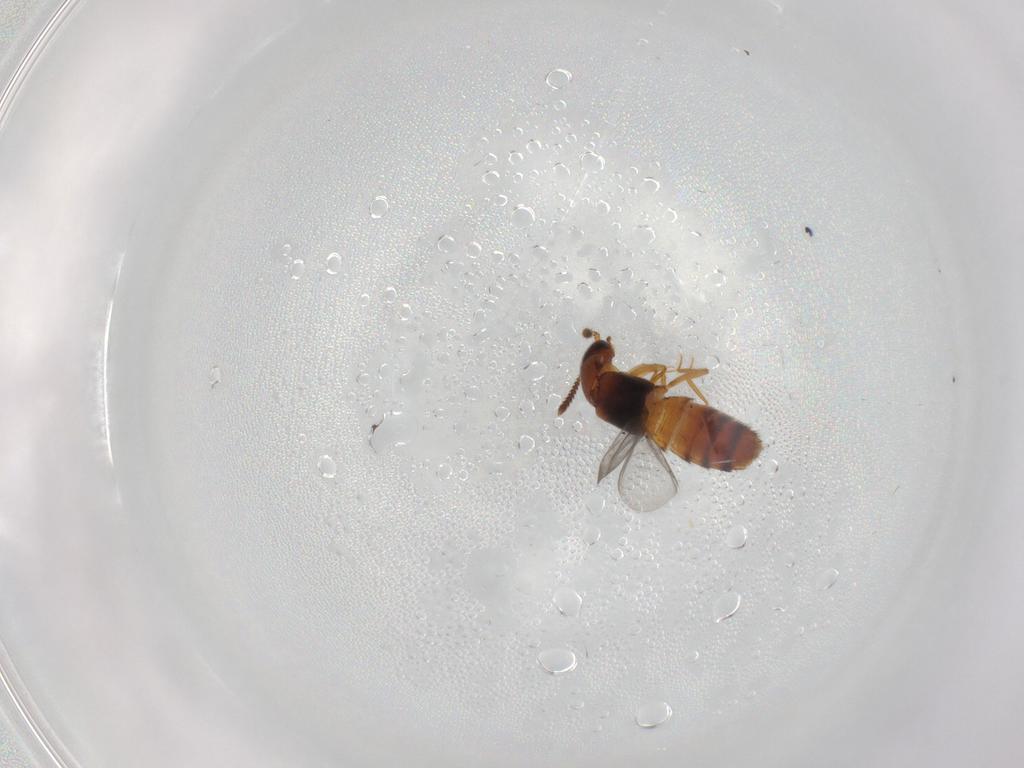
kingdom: Animalia
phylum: Arthropoda
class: Insecta
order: Coleoptera
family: Staphylinidae
